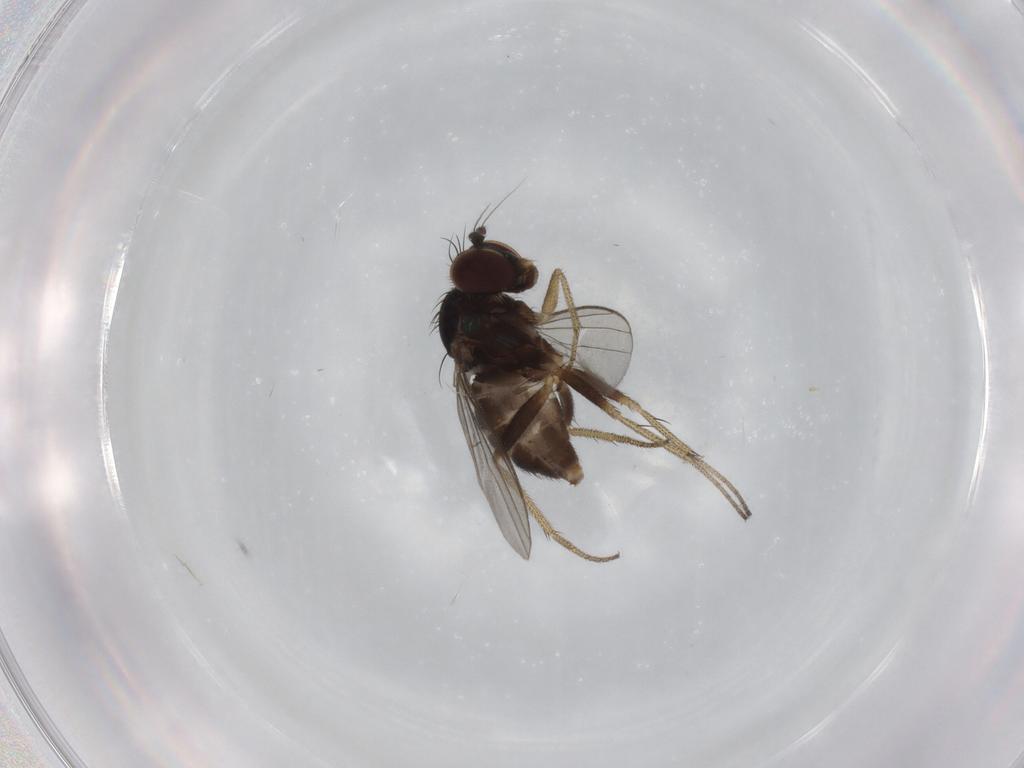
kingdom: Animalia
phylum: Arthropoda
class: Insecta
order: Diptera
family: Dolichopodidae
